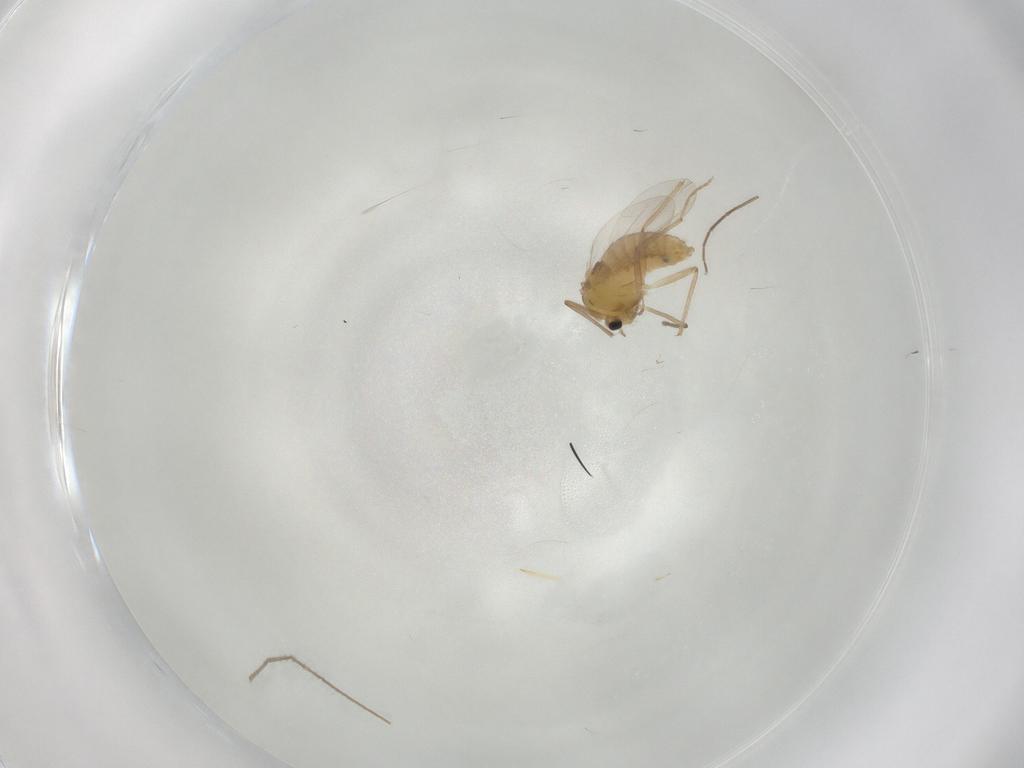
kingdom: Animalia
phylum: Arthropoda
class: Insecta
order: Diptera
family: Chironomidae
